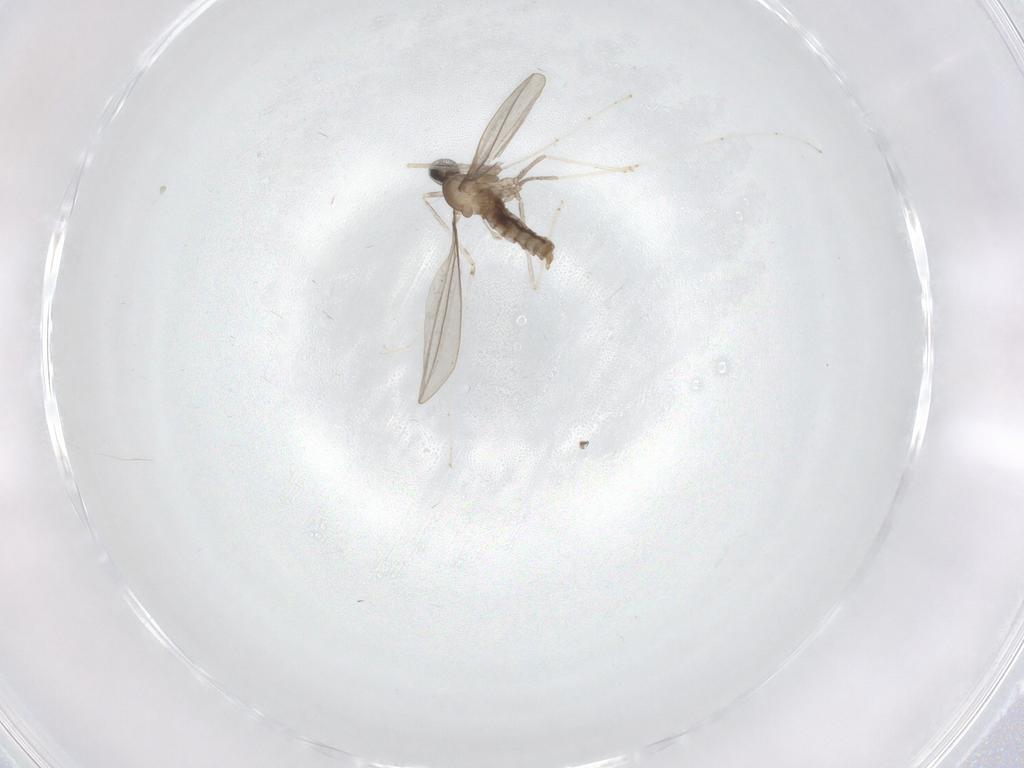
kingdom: Animalia
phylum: Arthropoda
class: Insecta
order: Diptera
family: Cecidomyiidae
